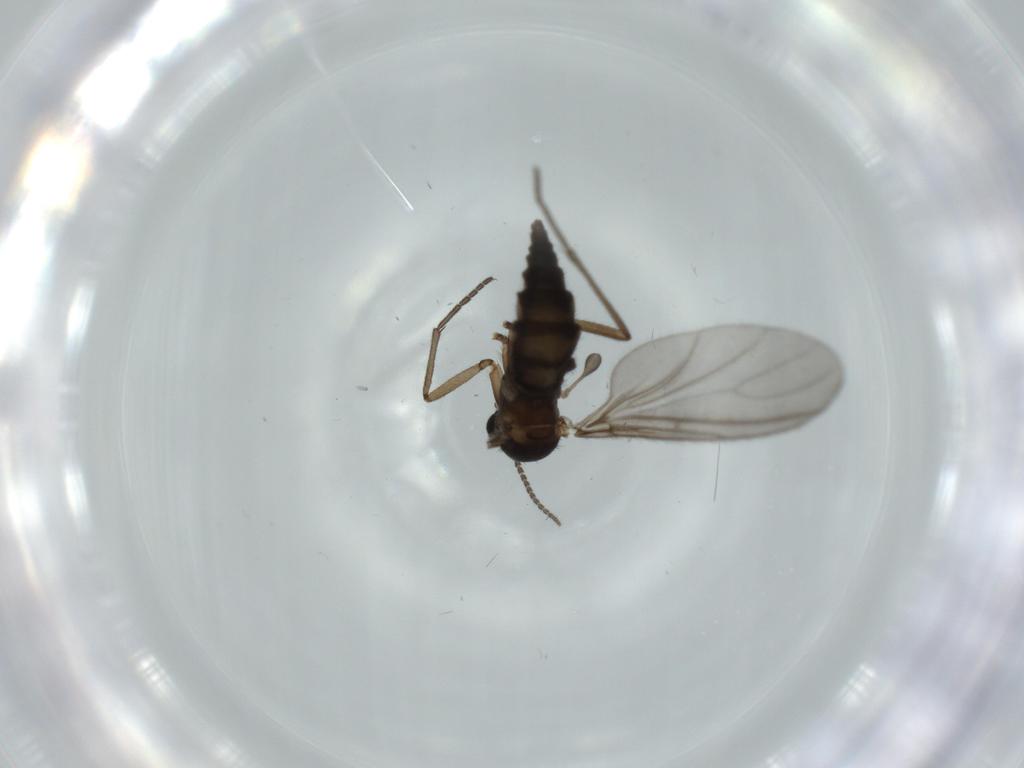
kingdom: Animalia
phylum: Arthropoda
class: Insecta
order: Diptera
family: Sciaridae
